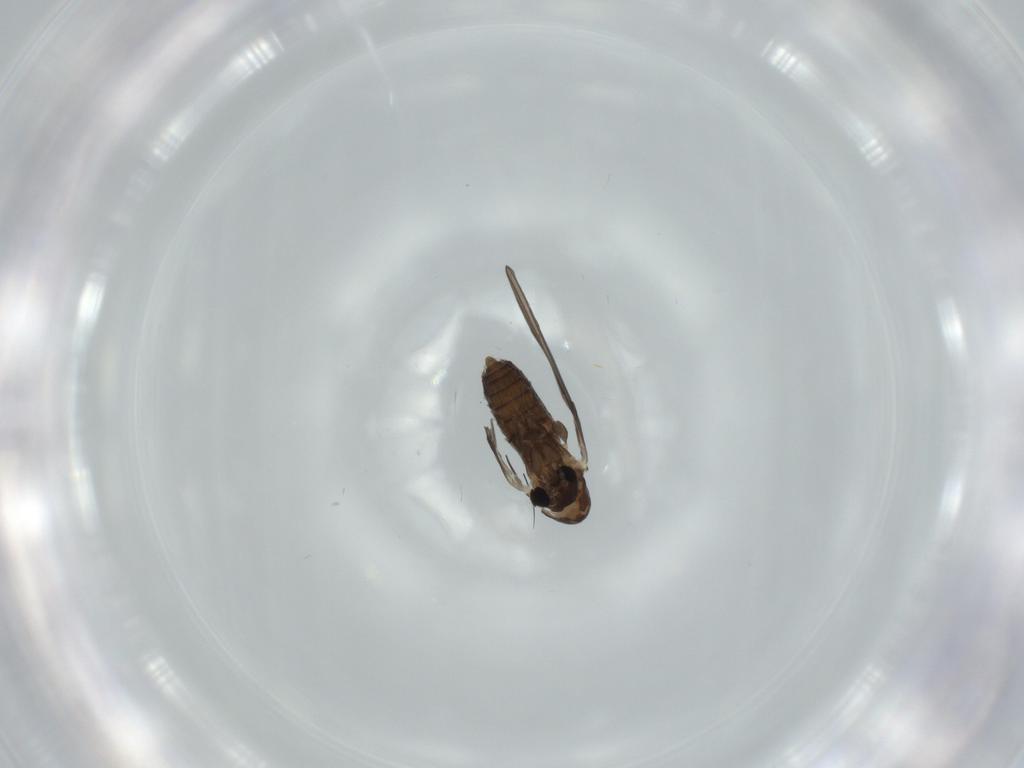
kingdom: Animalia
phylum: Arthropoda
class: Insecta
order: Diptera
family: Psychodidae
